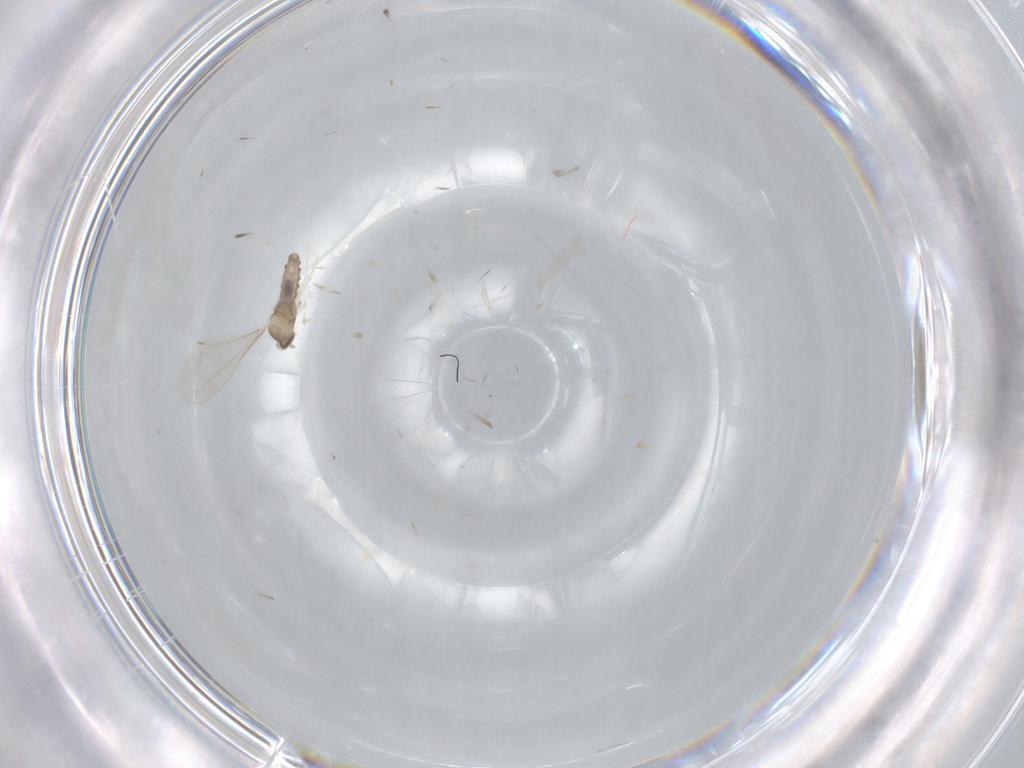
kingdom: Animalia
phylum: Arthropoda
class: Insecta
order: Diptera
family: Cecidomyiidae
